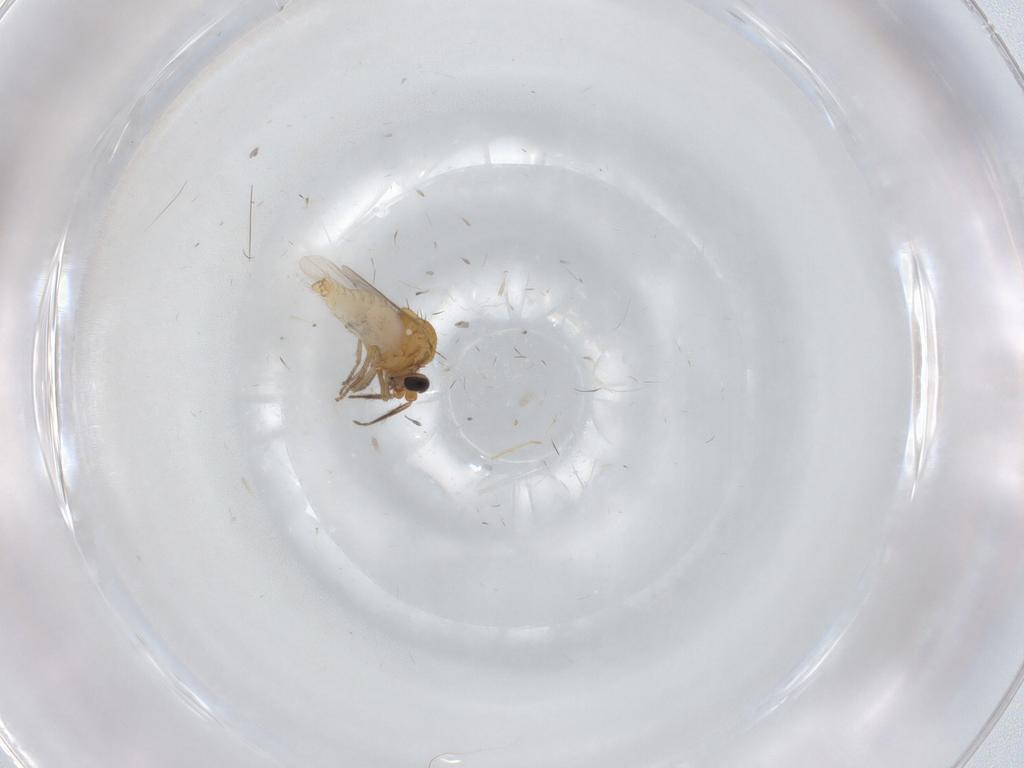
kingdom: Animalia
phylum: Arthropoda
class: Insecta
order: Diptera
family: Ceratopogonidae
